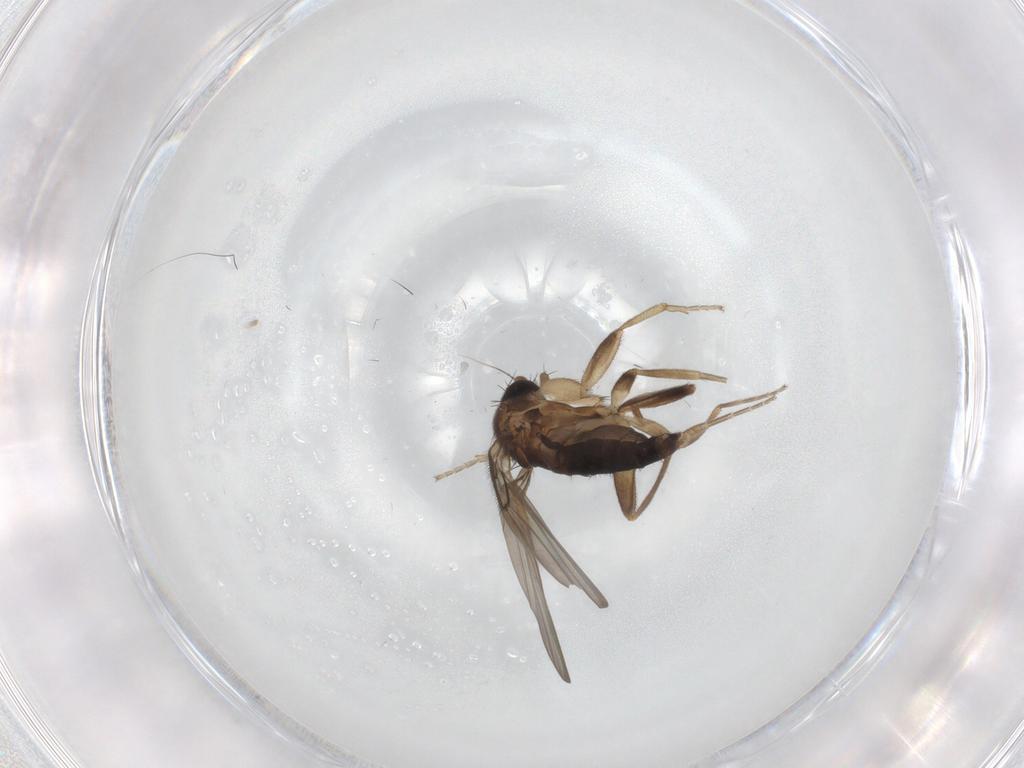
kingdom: Animalia
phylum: Arthropoda
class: Insecta
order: Diptera
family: Phoridae
